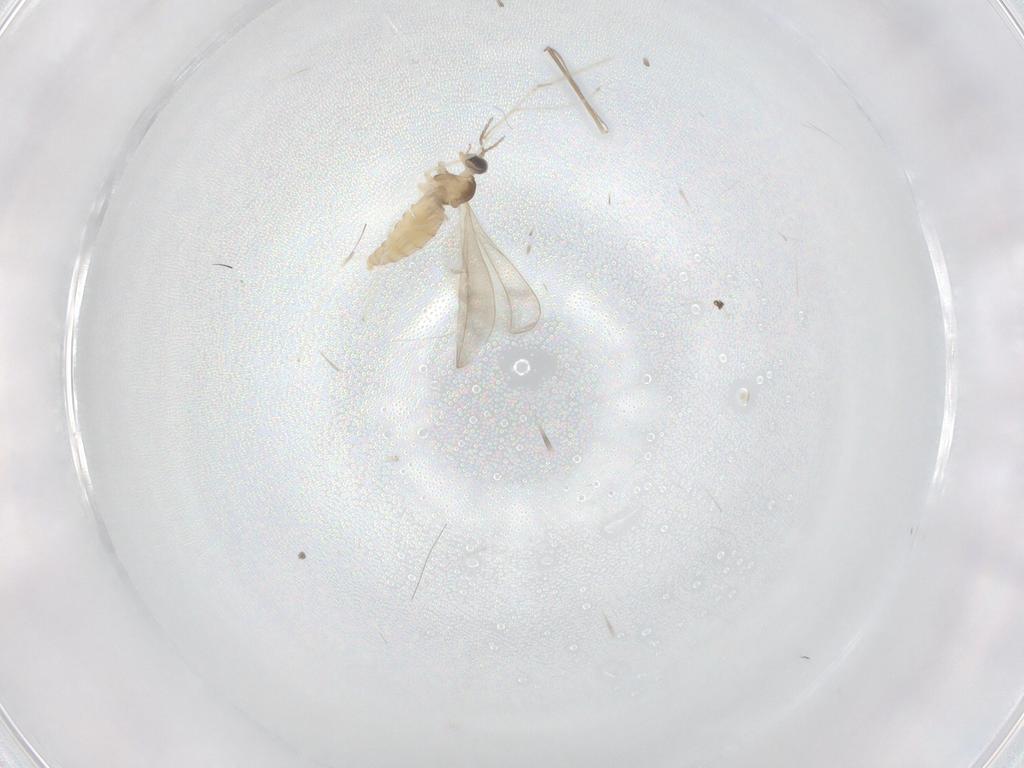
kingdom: Animalia
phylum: Arthropoda
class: Insecta
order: Diptera
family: Cecidomyiidae
